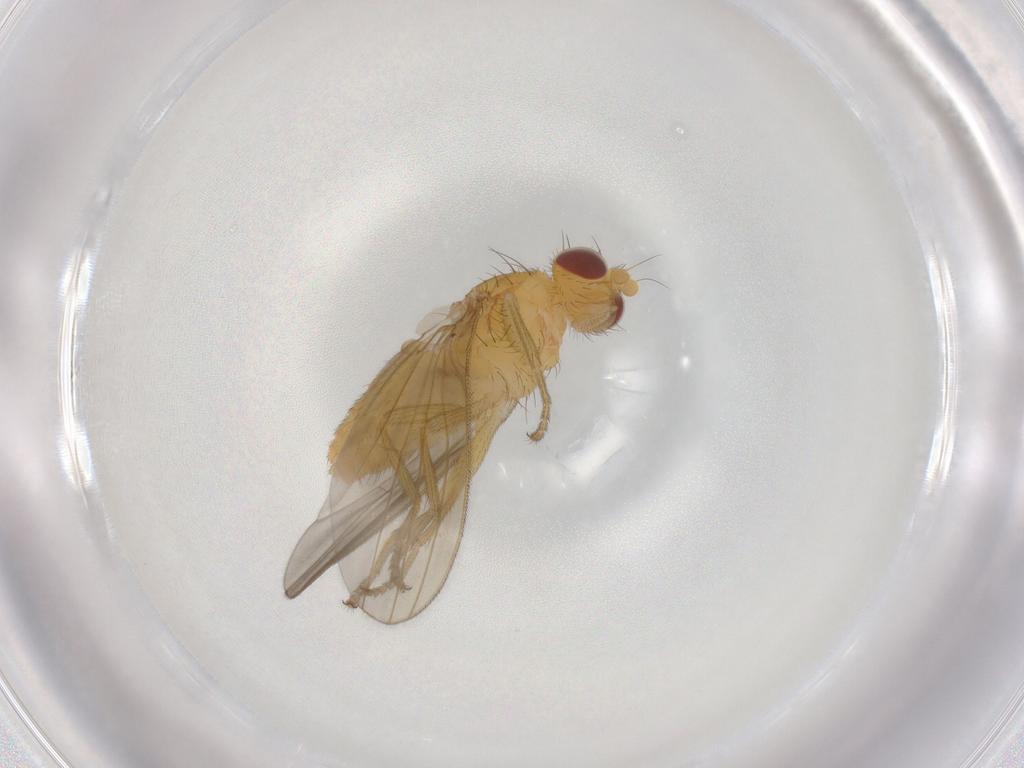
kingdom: Animalia
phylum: Arthropoda
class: Insecta
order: Diptera
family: Natalimyzidae
